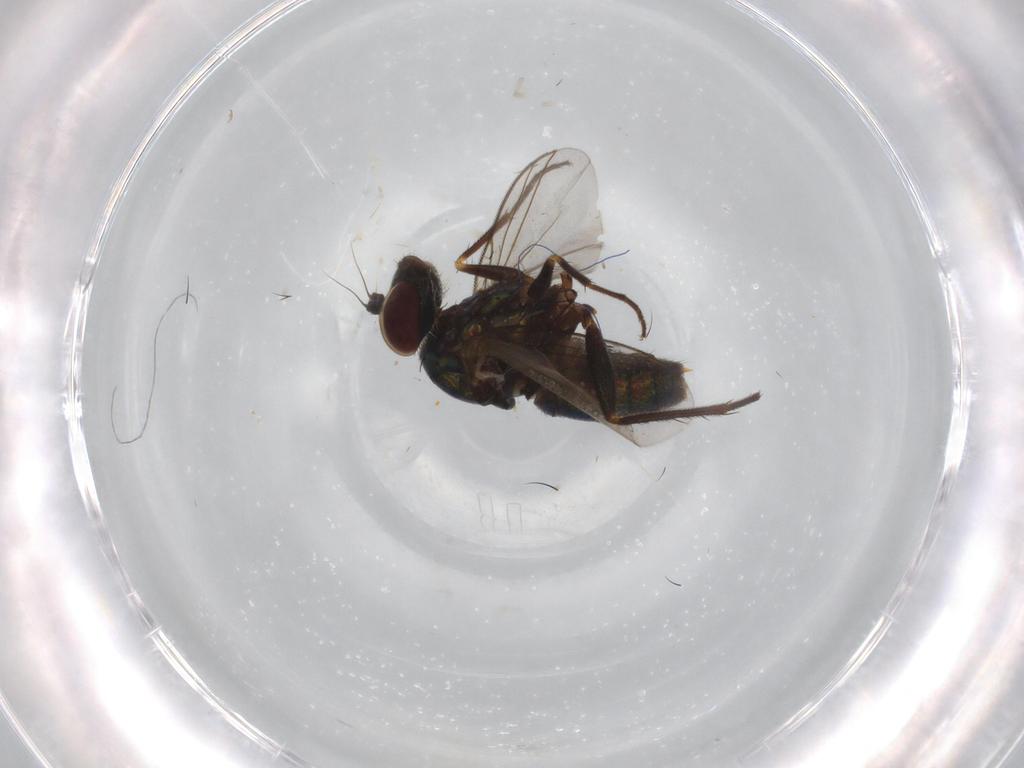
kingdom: Animalia
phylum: Arthropoda
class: Insecta
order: Diptera
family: Dolichopodidae
